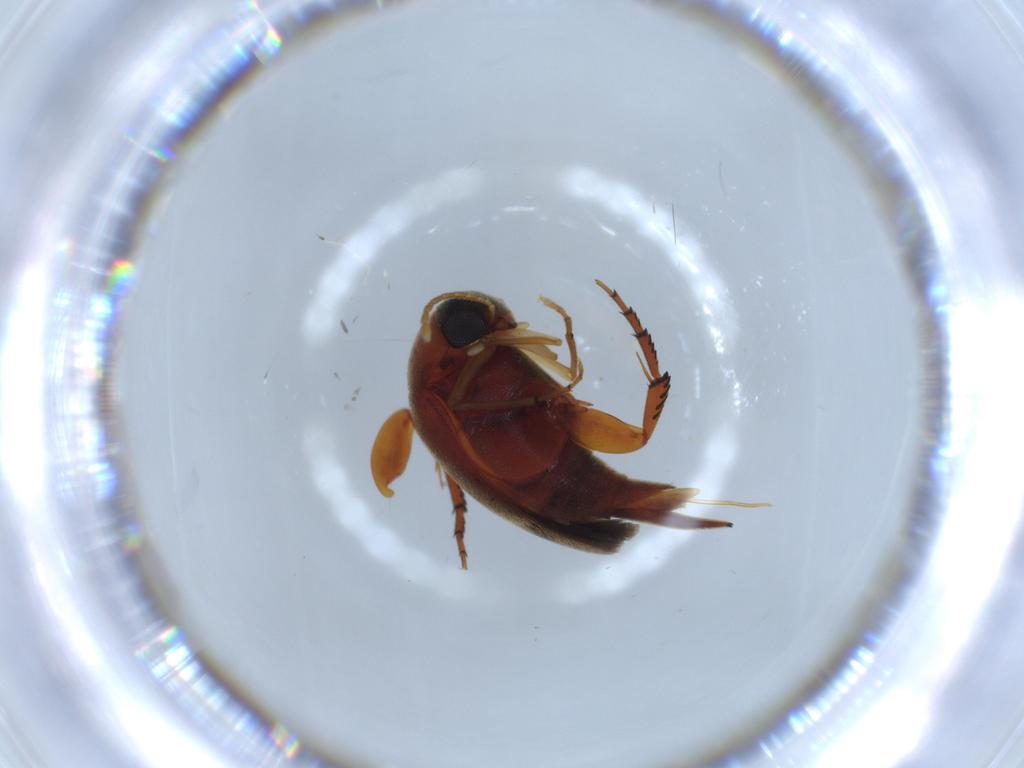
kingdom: Animalia
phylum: Arthropoda
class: Insecta
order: Coleoptera
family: Mordellidae
